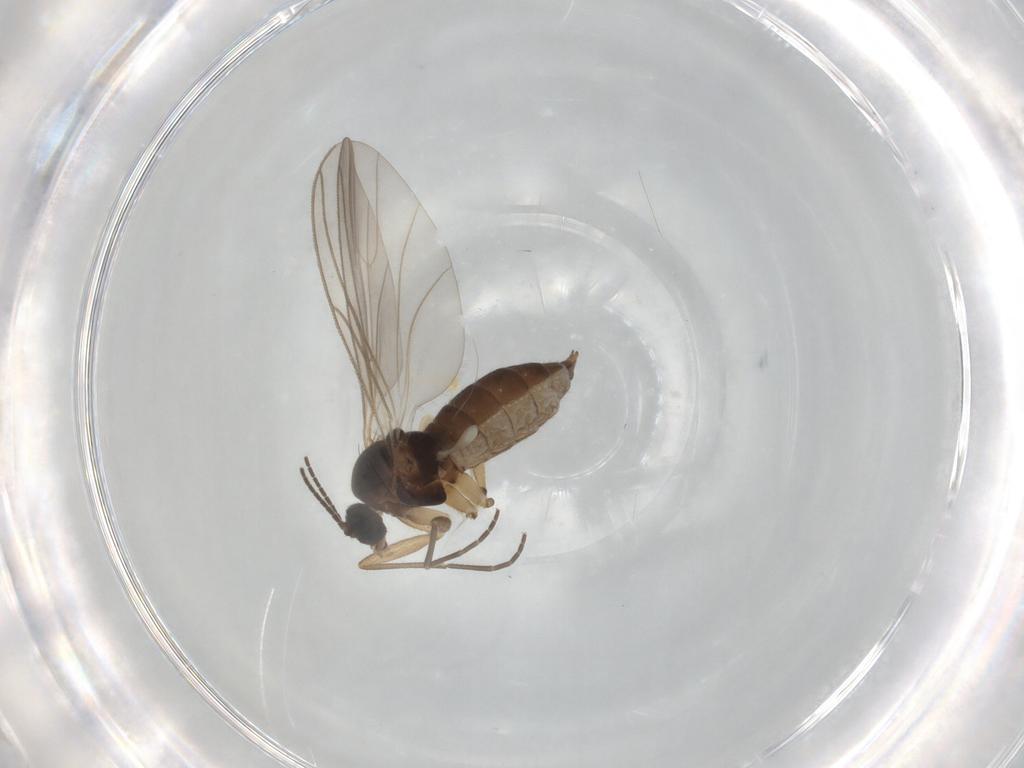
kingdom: Animalia
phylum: Arthropoda
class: Insecta
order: Diptera
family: Sciaridae
